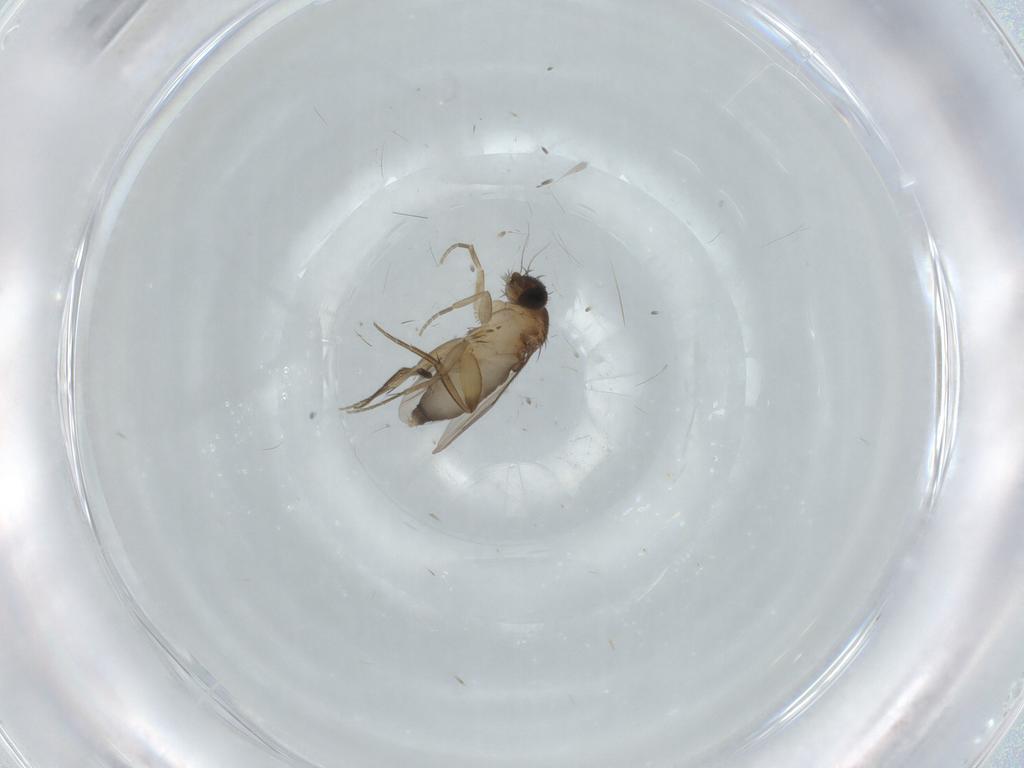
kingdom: Animalia
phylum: Arthropoda
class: Insecta
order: Diptera
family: Phoridae
